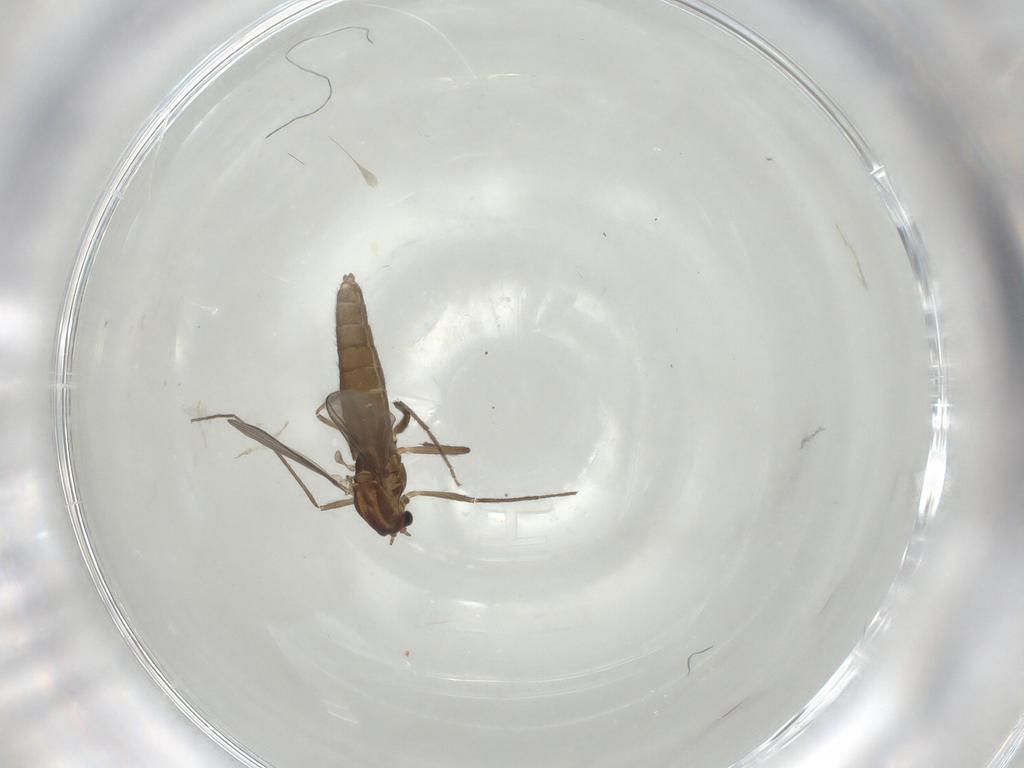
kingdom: Animalia
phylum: Arthropoda
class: Insecta
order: Diptera
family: Chironomidae
